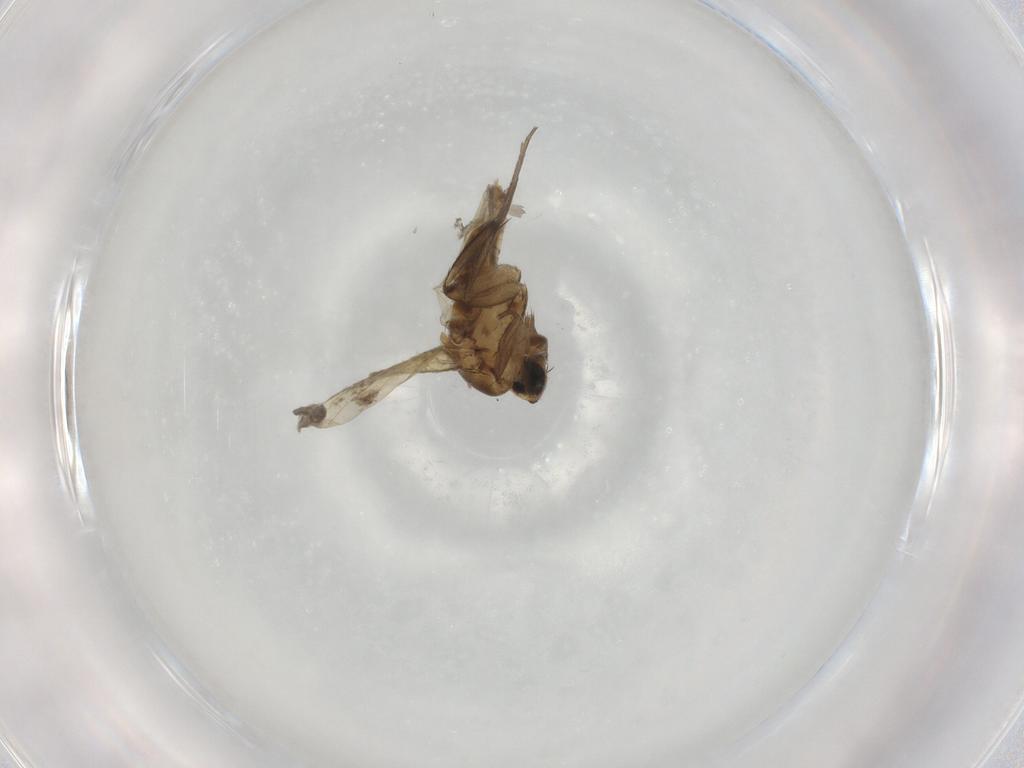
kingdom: Animalia
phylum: Arthropoda
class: Insecta
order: Diptera
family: Phoridae
